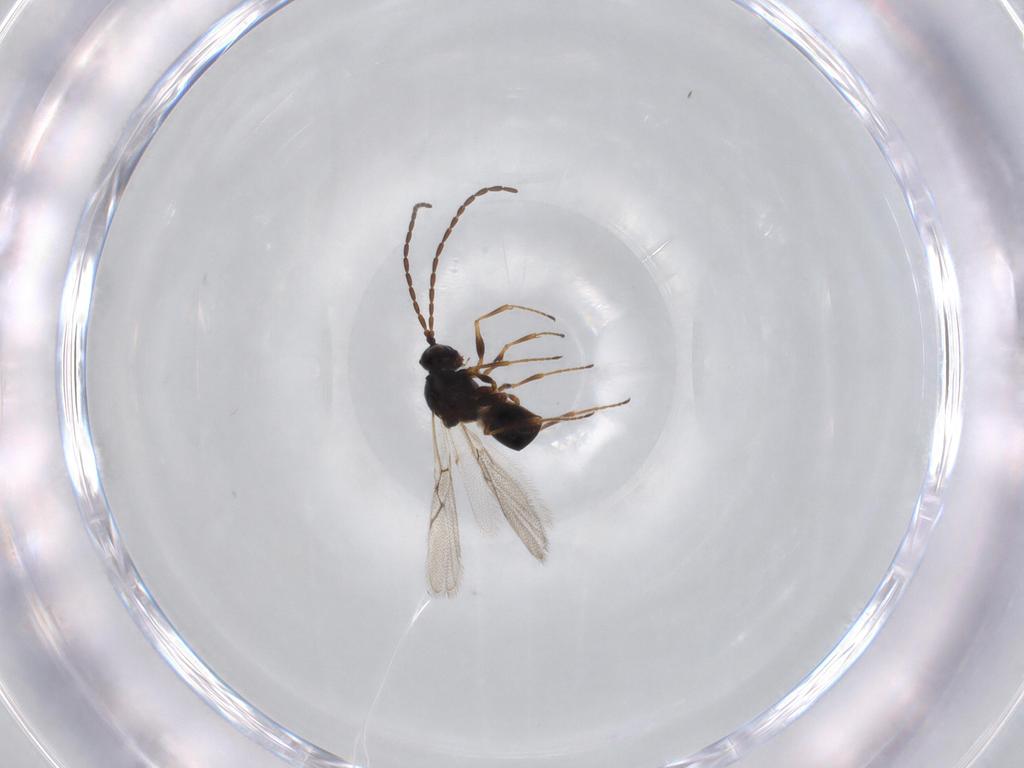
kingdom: Animalia
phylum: Arthropoda
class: Insecta
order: Hymenoptera
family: Figitidae
